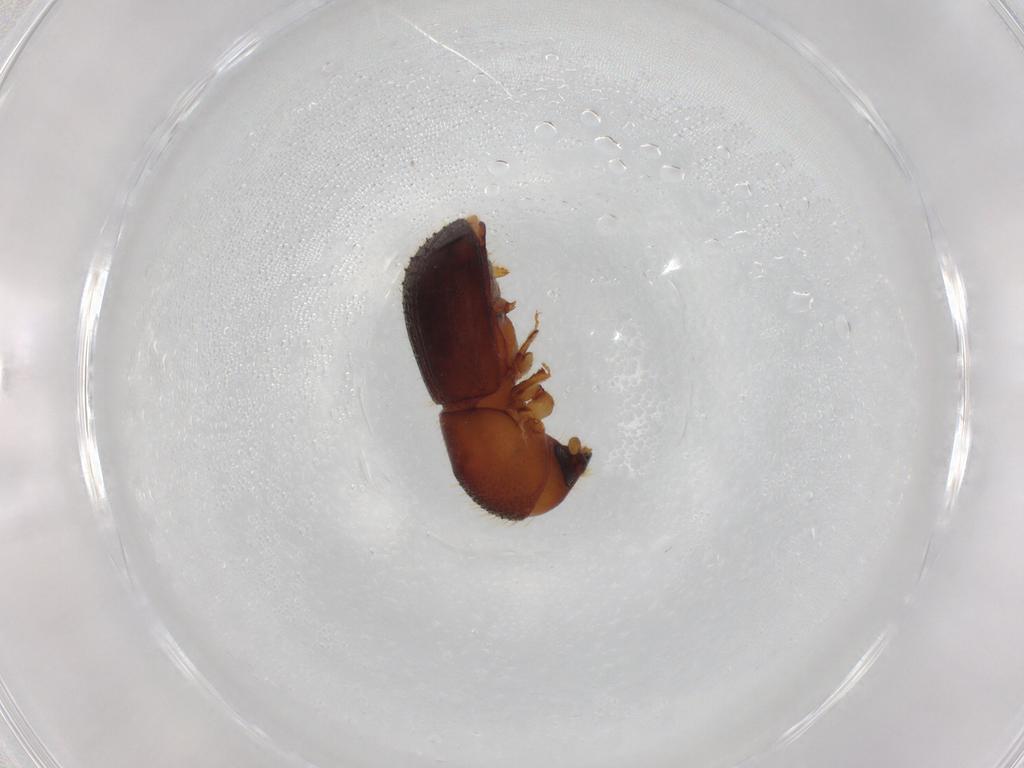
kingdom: Animalia
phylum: Arthropoda
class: Insecta
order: Coleoptera
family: Curculionidae
